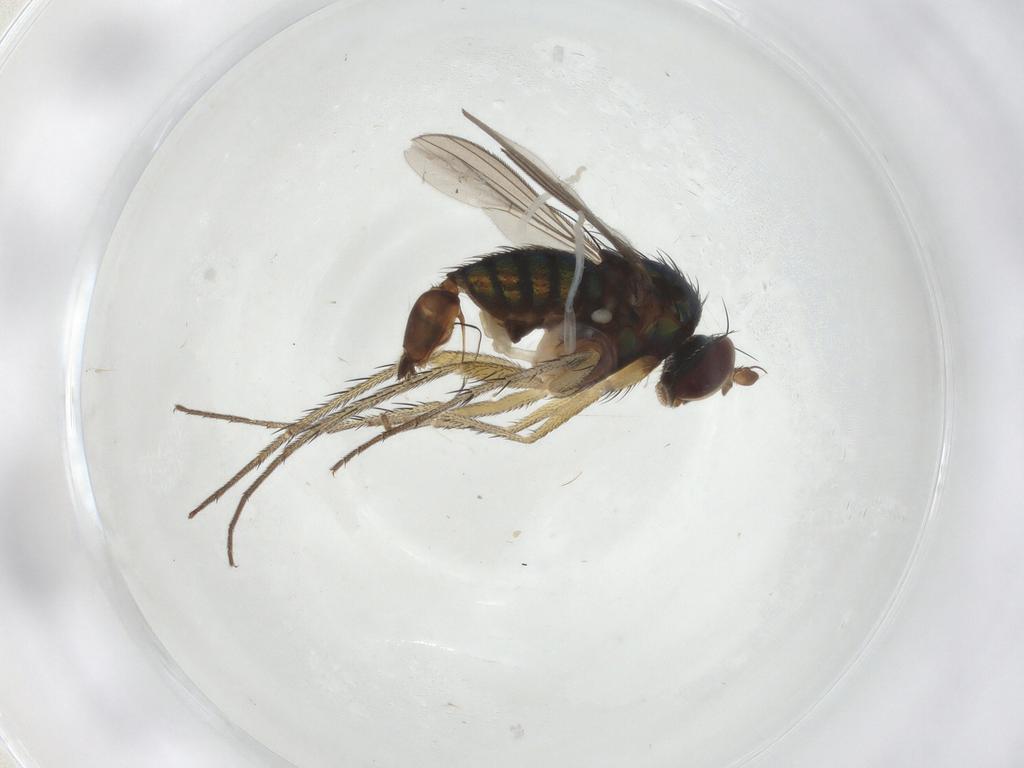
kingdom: Animalia
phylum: Arthropoda
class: Insecta
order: Diptera
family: Dolichopodidae
